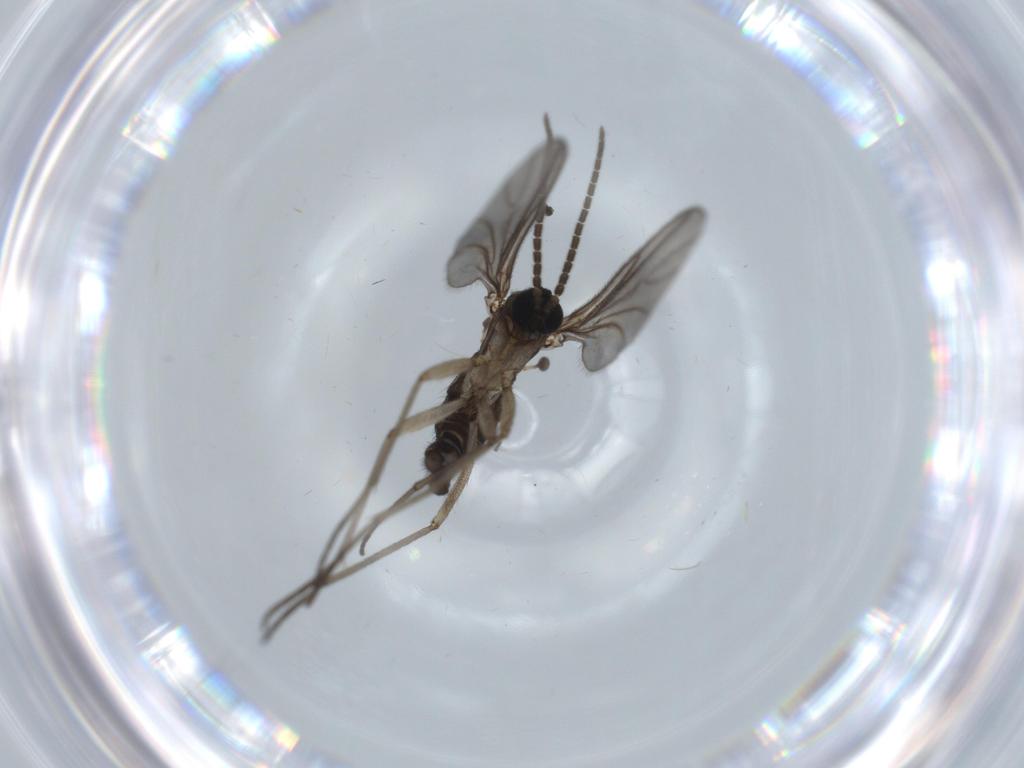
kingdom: Animalia
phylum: Arthropoda
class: Insecta
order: Diptera
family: Sciaridae
